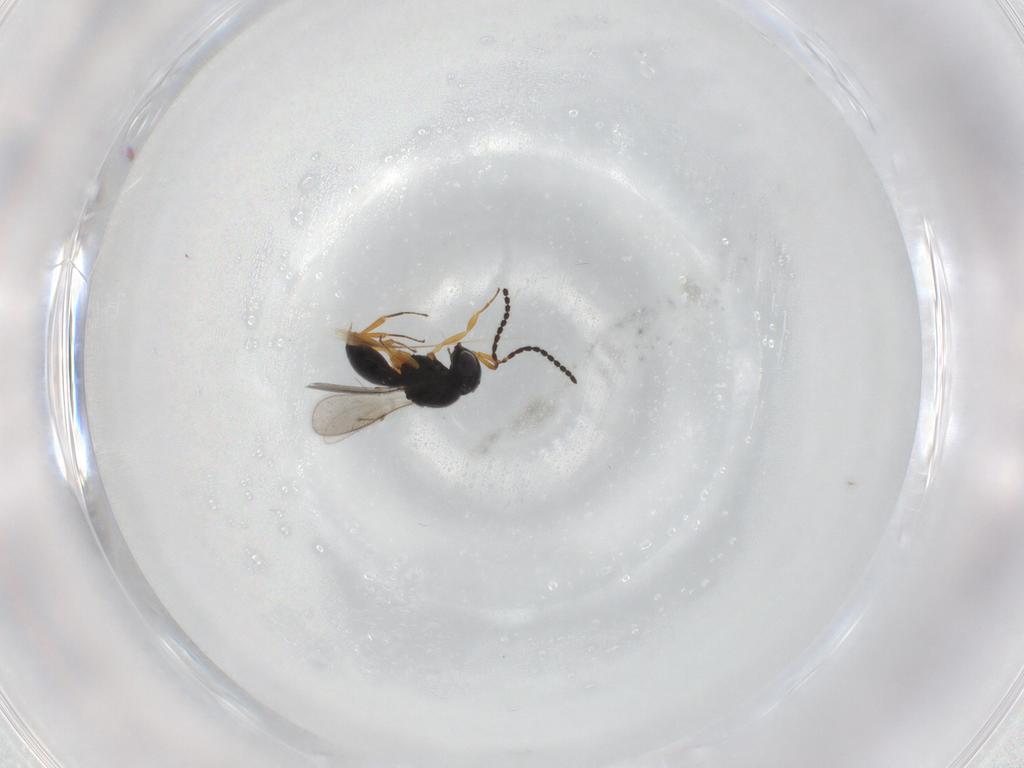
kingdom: Animalia
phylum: Arthropoda
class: Insecta
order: Hymenoptera
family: Scelionidae
